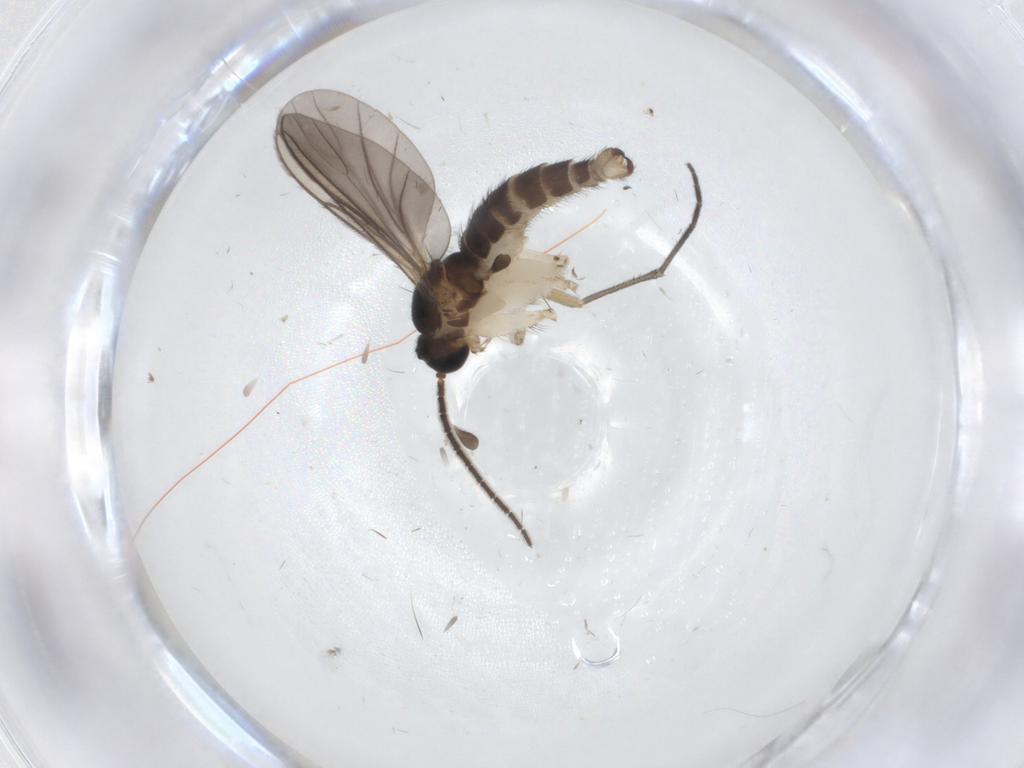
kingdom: Animalia
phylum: Arthropoda
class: Insecta
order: Diptera
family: Sciaridae
